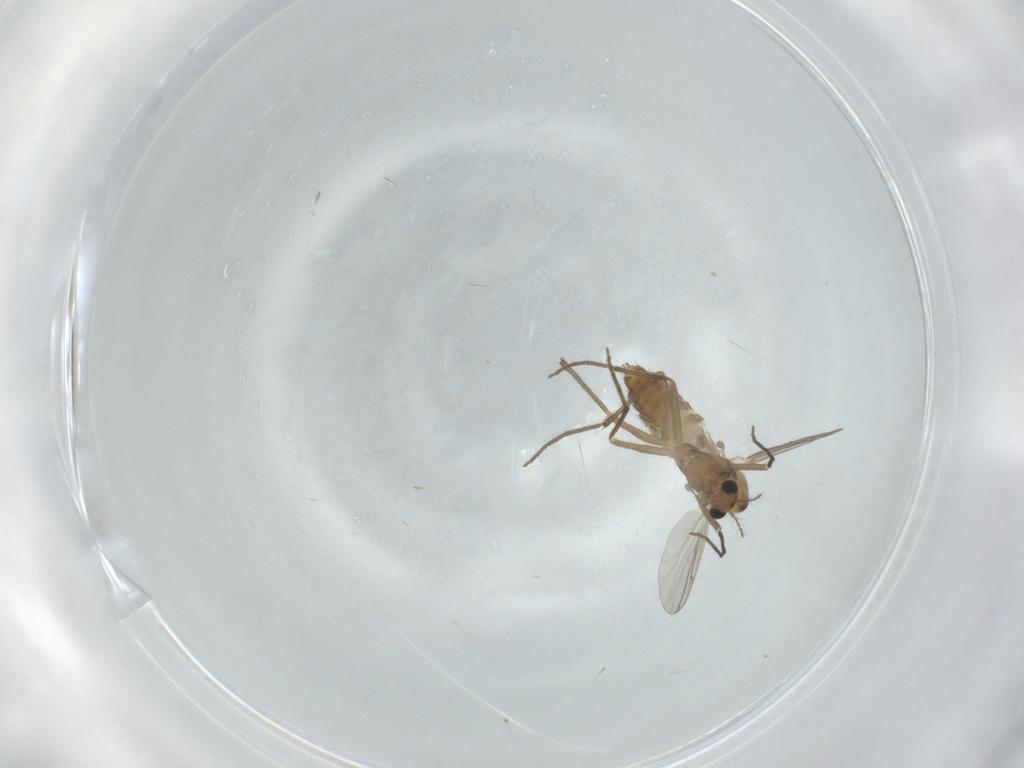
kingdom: Animalia
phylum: Arthropoda
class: Insecta
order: Diptera
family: Chironomidae
